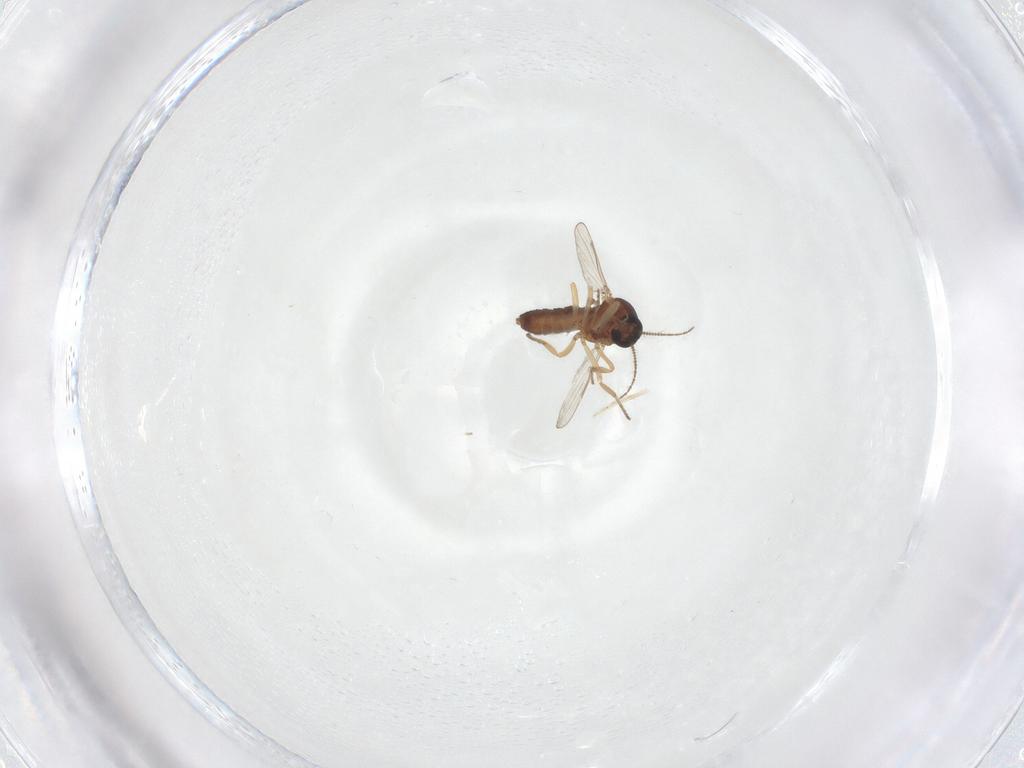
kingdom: Animalia
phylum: Arthropoda
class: Insecta
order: Diptera
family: Ceratopogonidae
